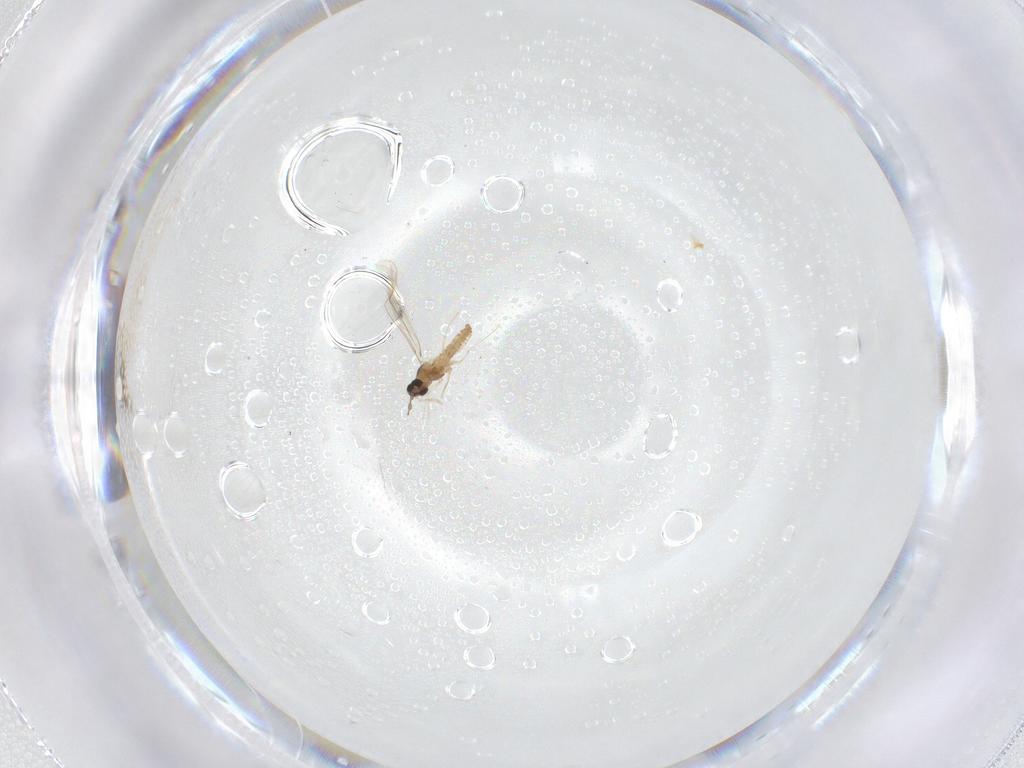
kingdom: Animalia
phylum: Arthropoda
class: Insecta
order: Diptera
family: Cecidomyiidae
